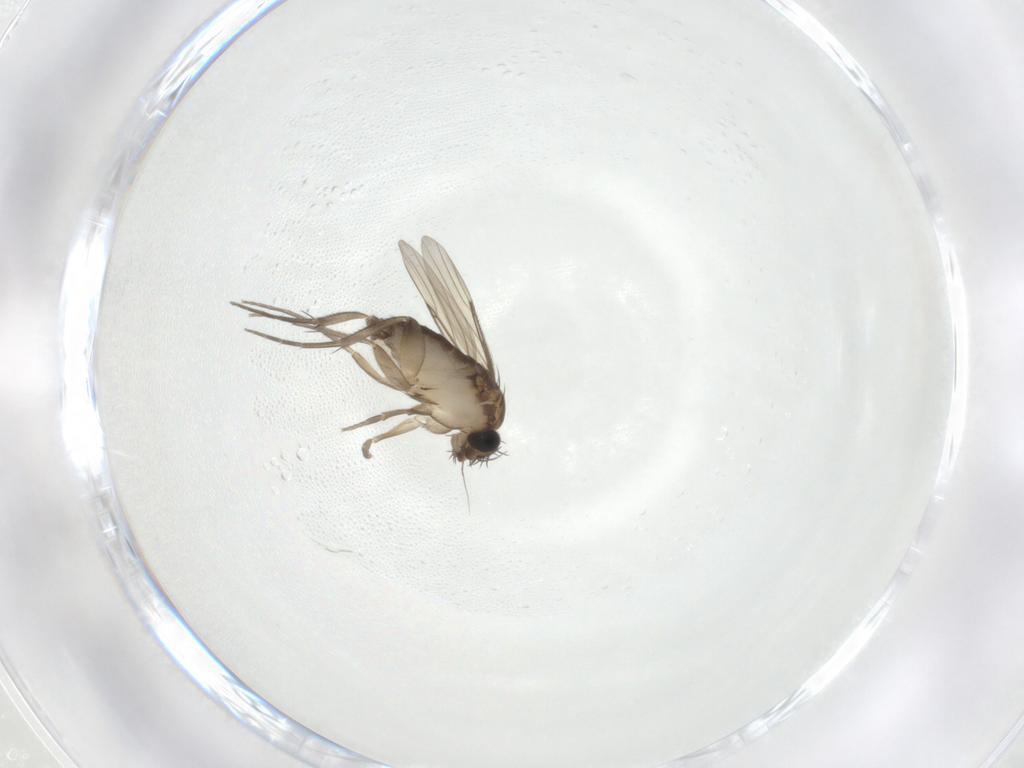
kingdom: Animalia
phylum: Arthropoda
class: Insecta
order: Diptera
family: Phoridae
